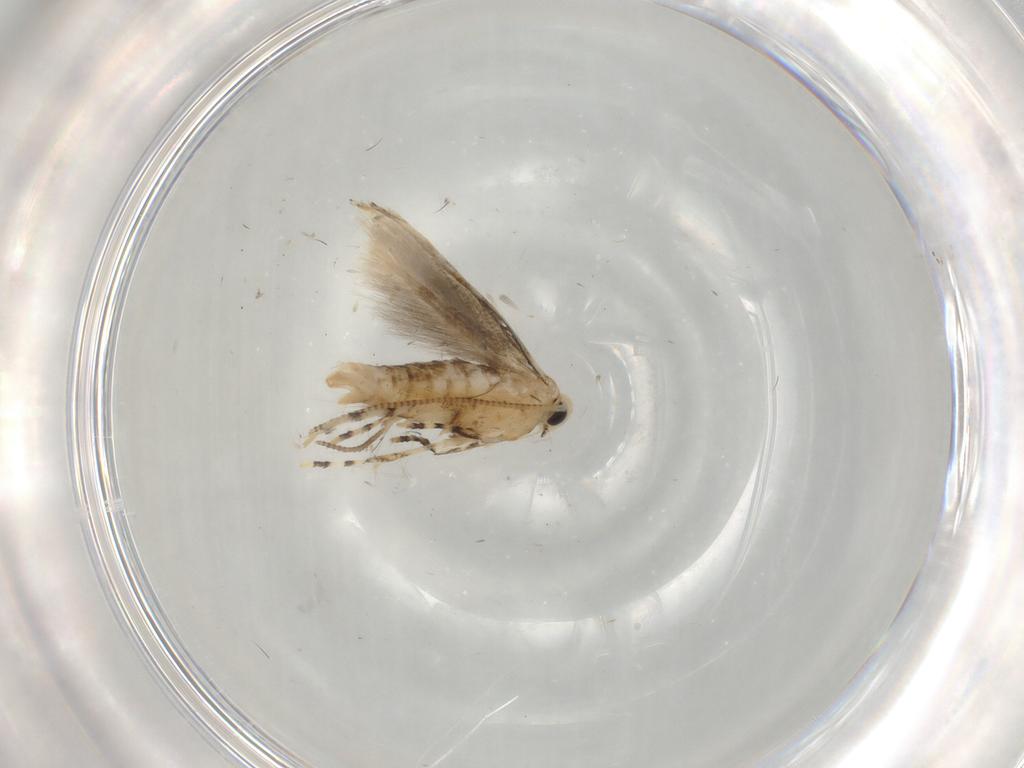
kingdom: Animalia
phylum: Arthropoda
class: Insecta
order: Lepidoptera
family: Gracillariidae
